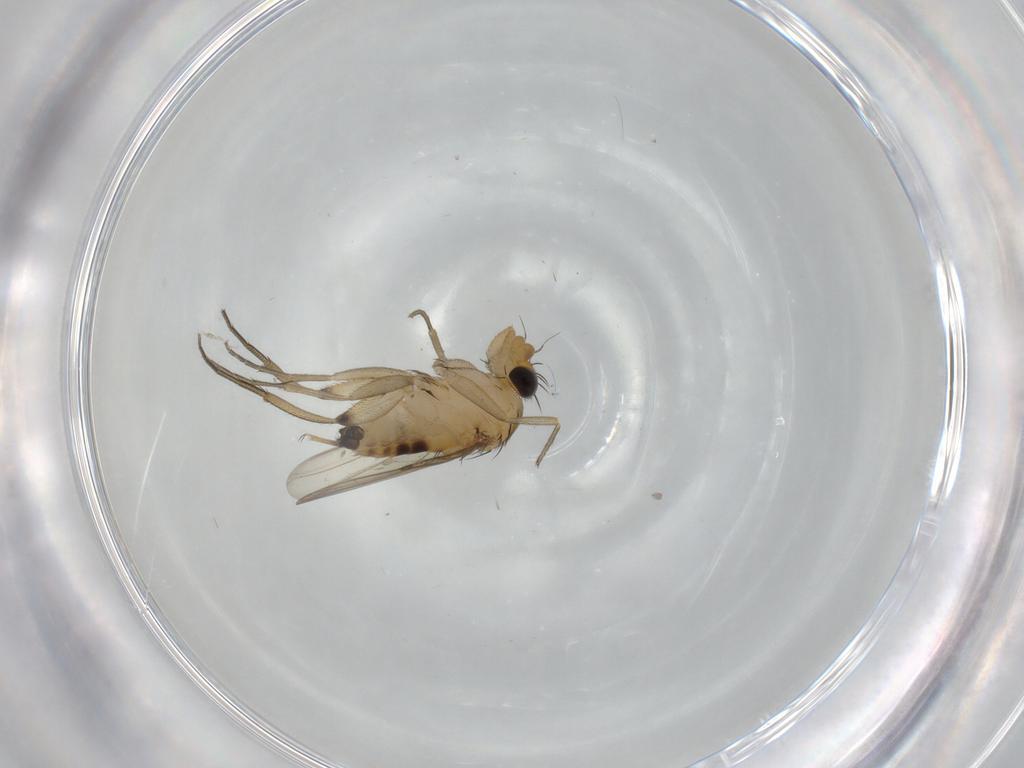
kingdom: Animalia
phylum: Arthropoda
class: Insecta
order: Diptera
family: Phoridae
